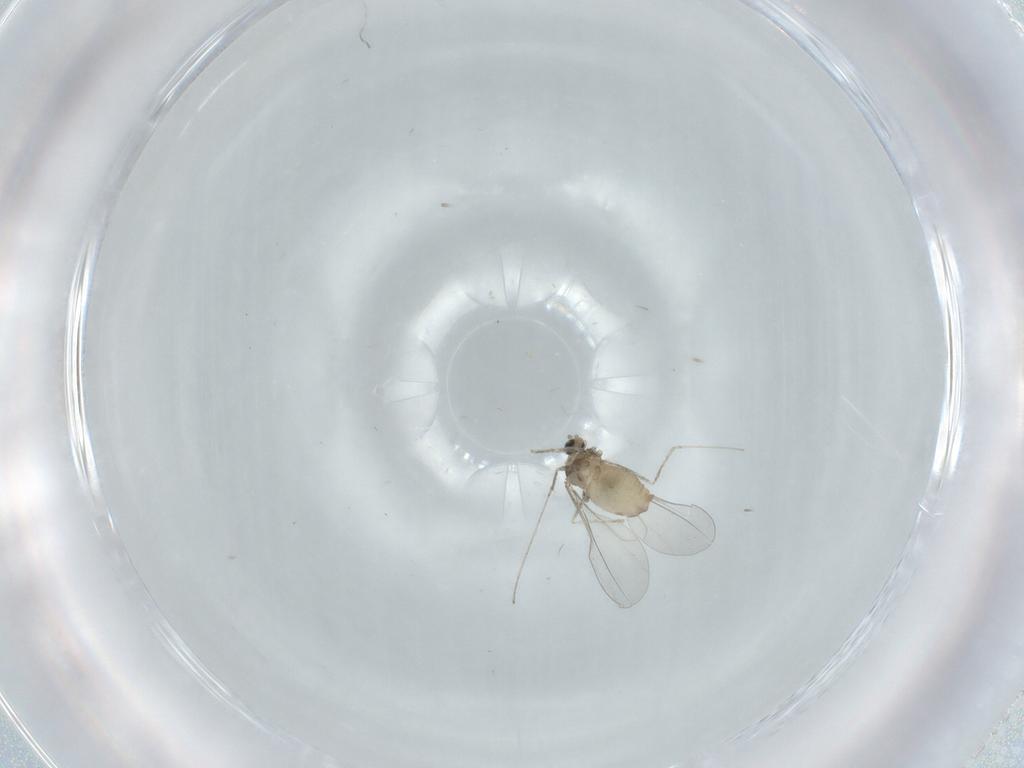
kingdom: Animalia
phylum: Arthropoda
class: Insecta
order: Diptera
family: Cecidomyiidae
